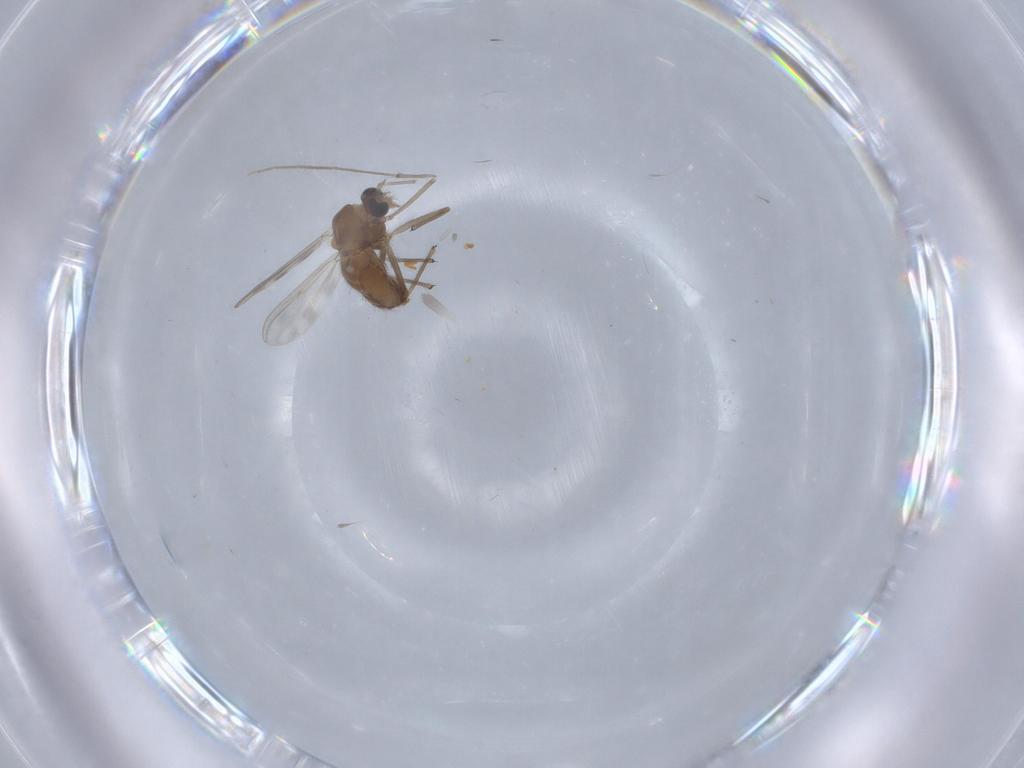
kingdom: Animalia
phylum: Arthropoda
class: Insecta
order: Diptera
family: Chironomidae
